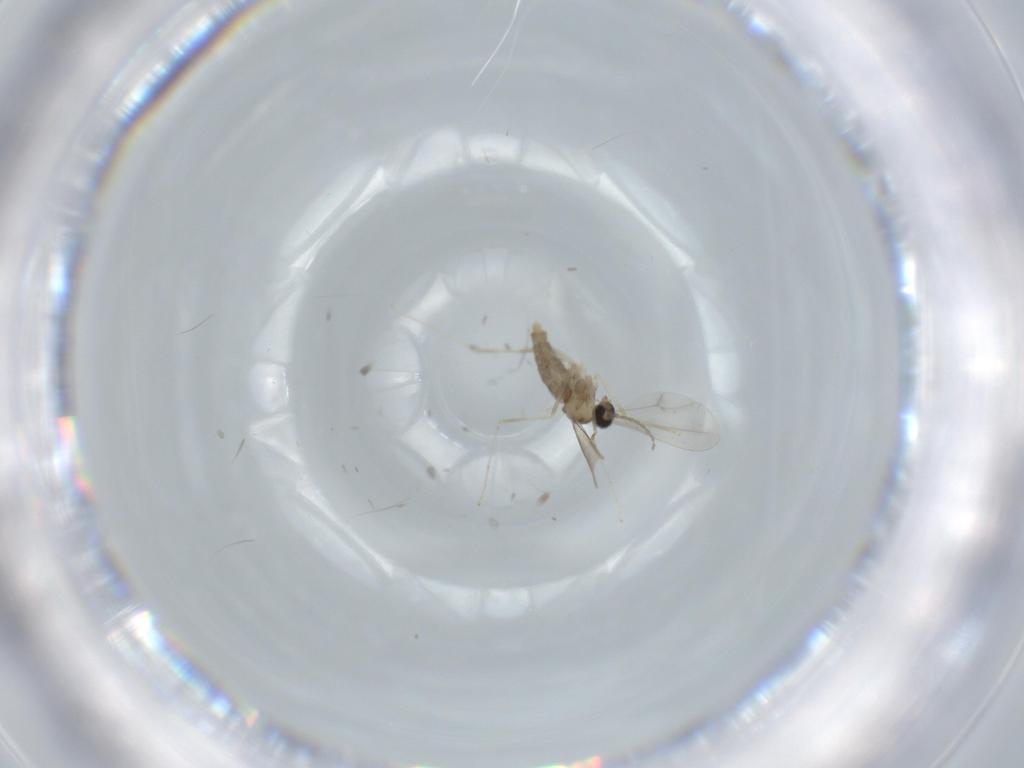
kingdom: Animalia
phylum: Arthropoda
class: Insecta
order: Diptera
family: Cecidomyiidae
